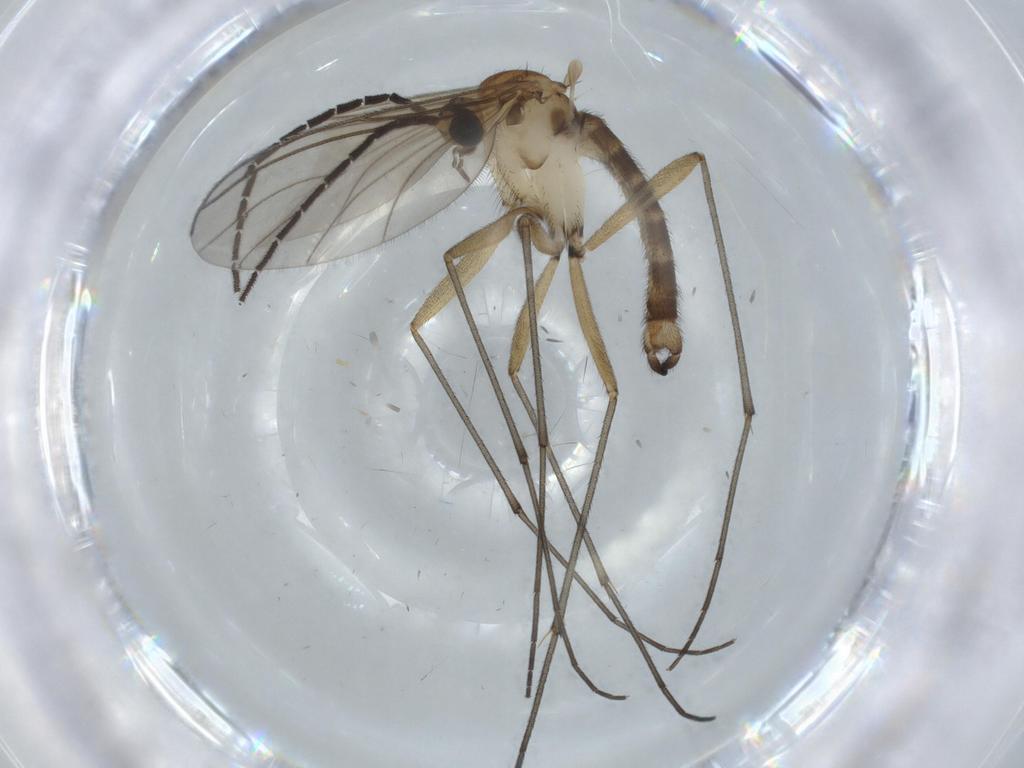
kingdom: Animalia
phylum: Arthropoda
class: Insecta
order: Diptera
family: Sciaridae
